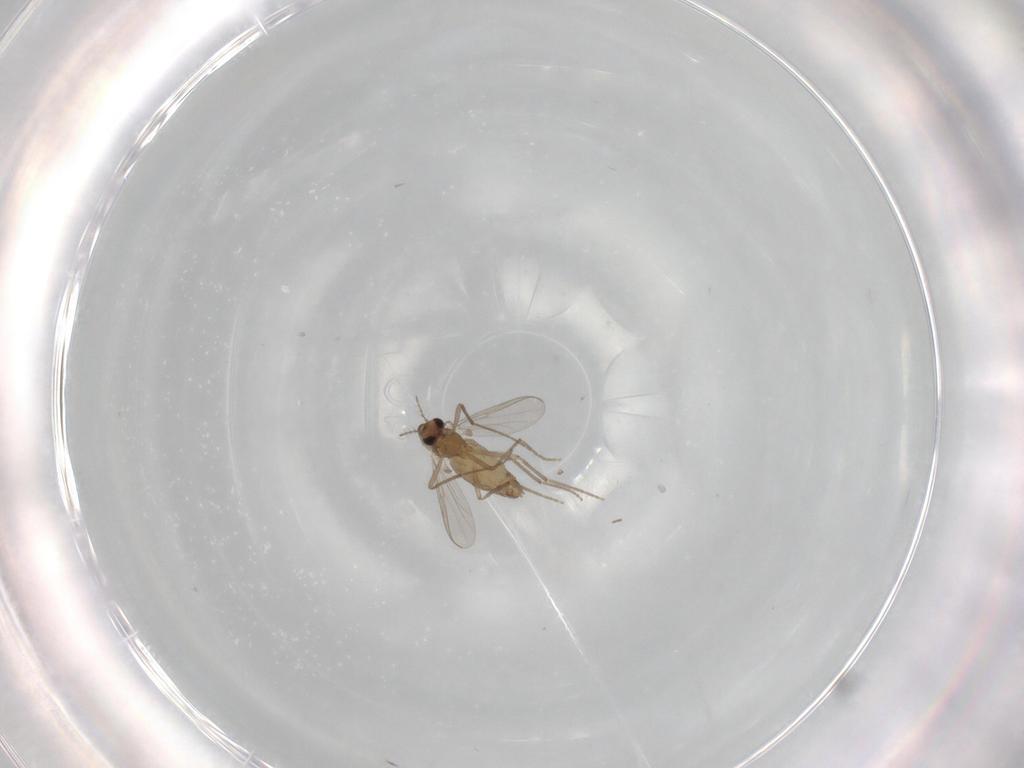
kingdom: Animalia
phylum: Arthropoda
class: Insecta
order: Diptera
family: Chironomidae
